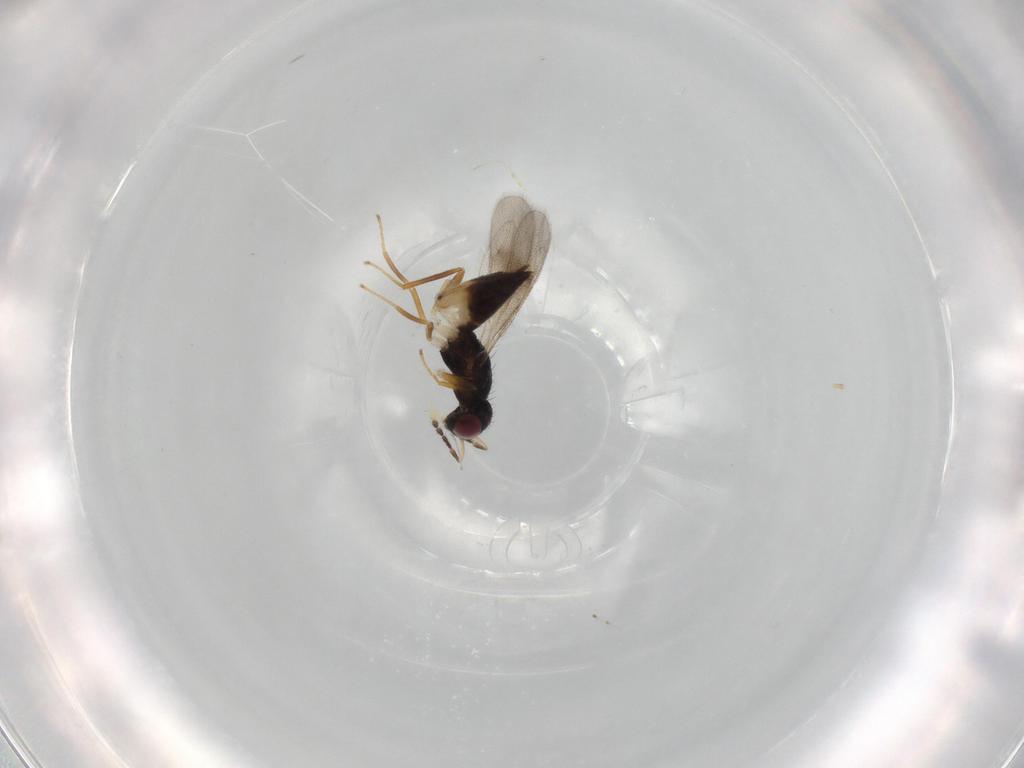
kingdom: Animalia
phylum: Arthropoda
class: Insecta
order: Hymenoptera
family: Eulophidae
